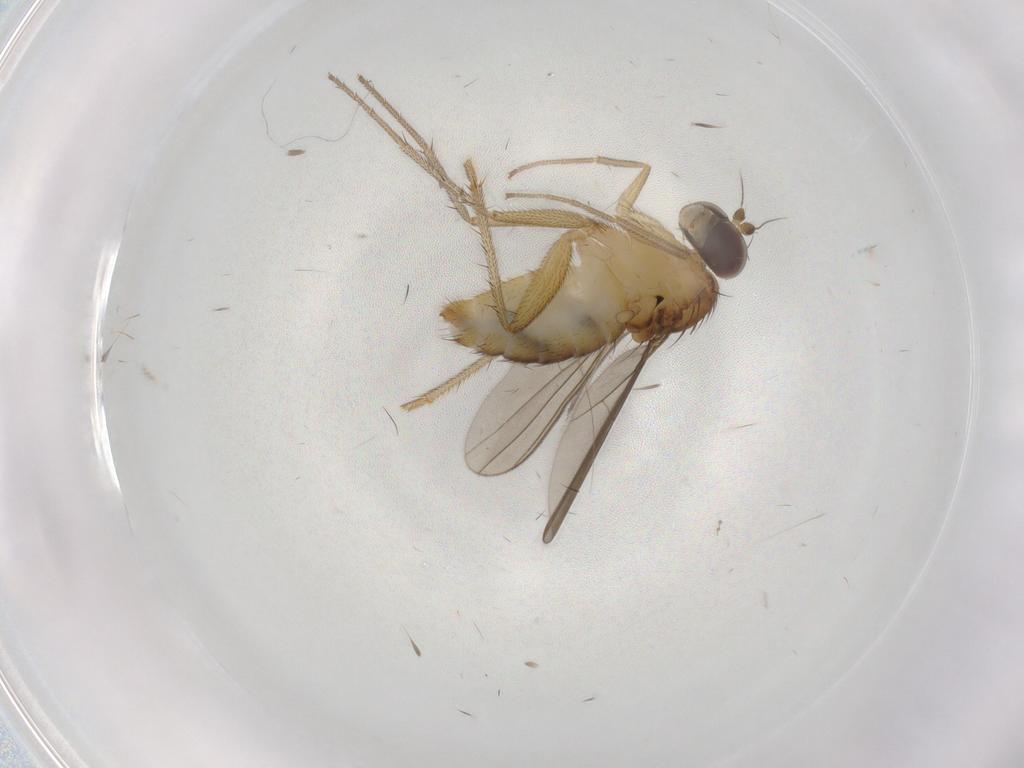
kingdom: Animalia
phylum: Arthropoda
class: Insecta
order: Diptera
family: Dolichopodidae
